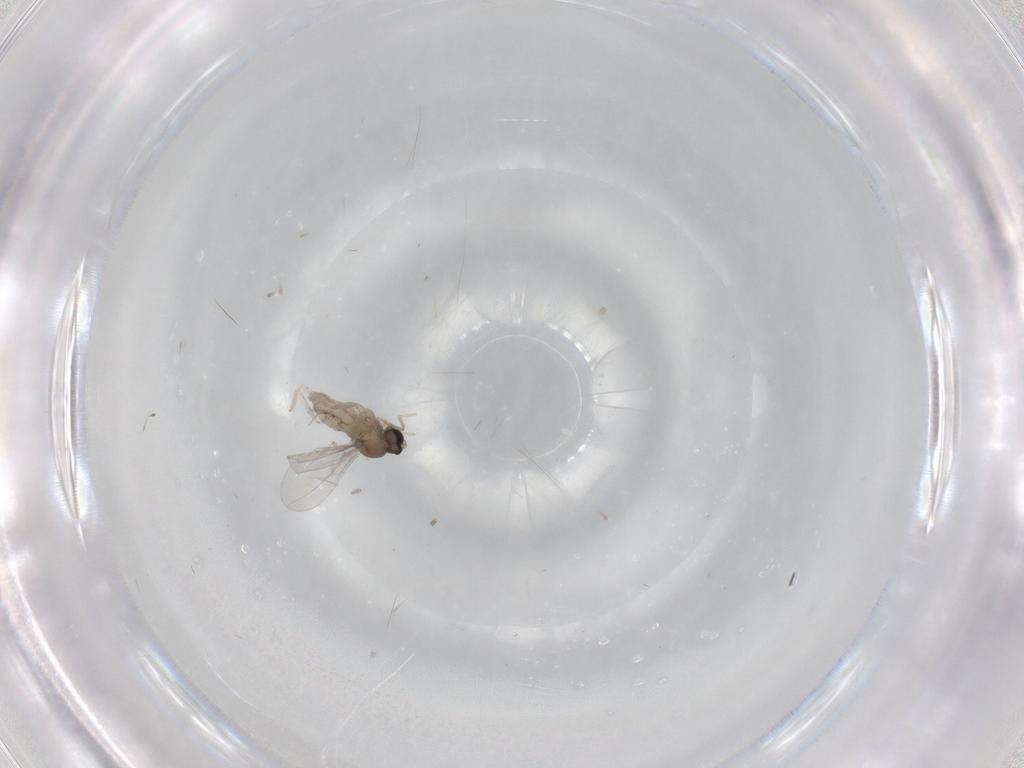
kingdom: Animalia
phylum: Arthropoda
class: Insecta
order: Diptera
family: Cecidomyiidae
